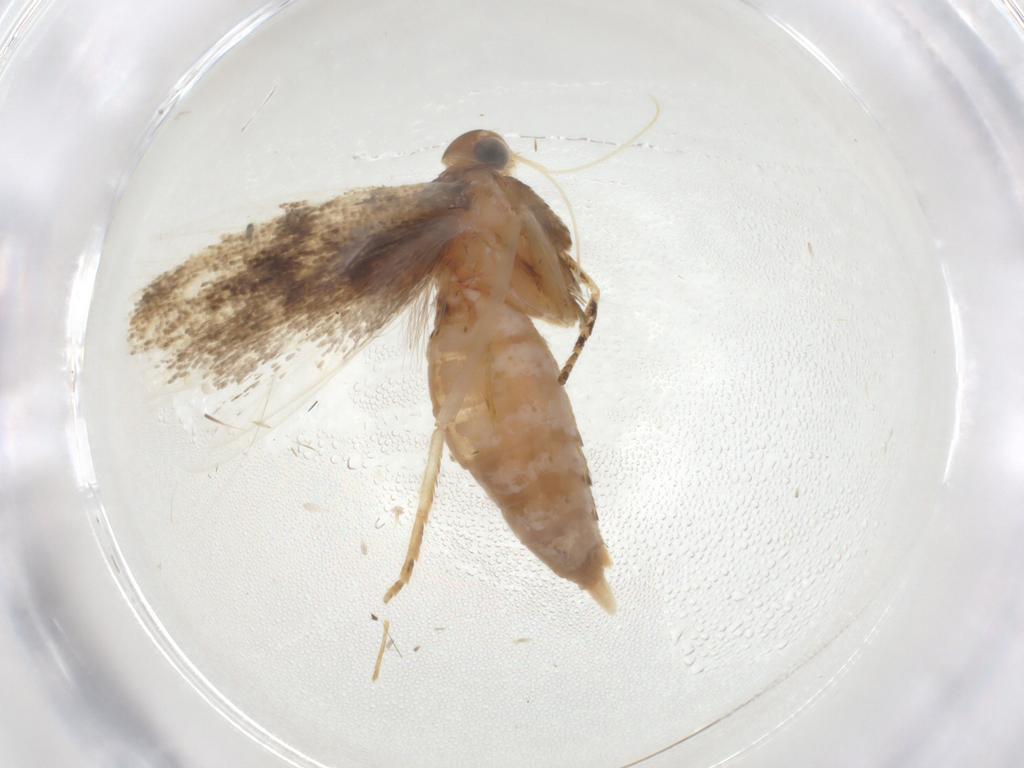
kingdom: Animalia
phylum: Arthropoda
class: Insecta
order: Lepidoptera
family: Gelechiidae
